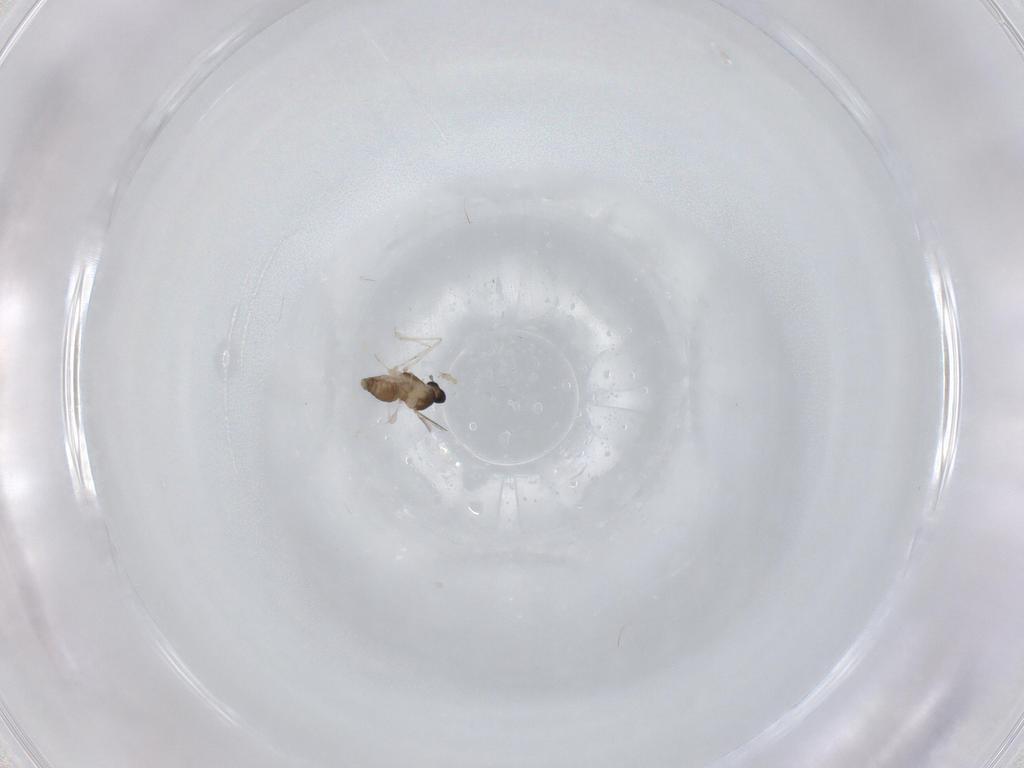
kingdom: Animalia
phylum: Arthropoda
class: Insecta
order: Diptera
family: Cecidomyiidae
